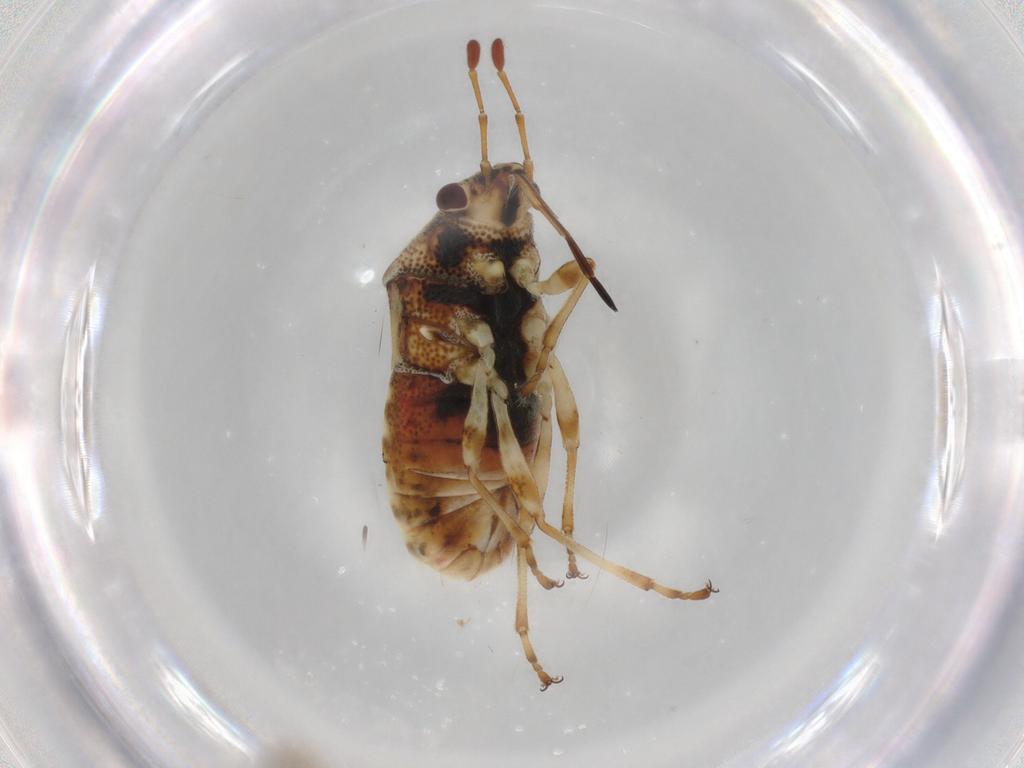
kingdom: Animalia
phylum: Arthropoda
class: Insecta
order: Hemiptera
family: Lygaeidae
